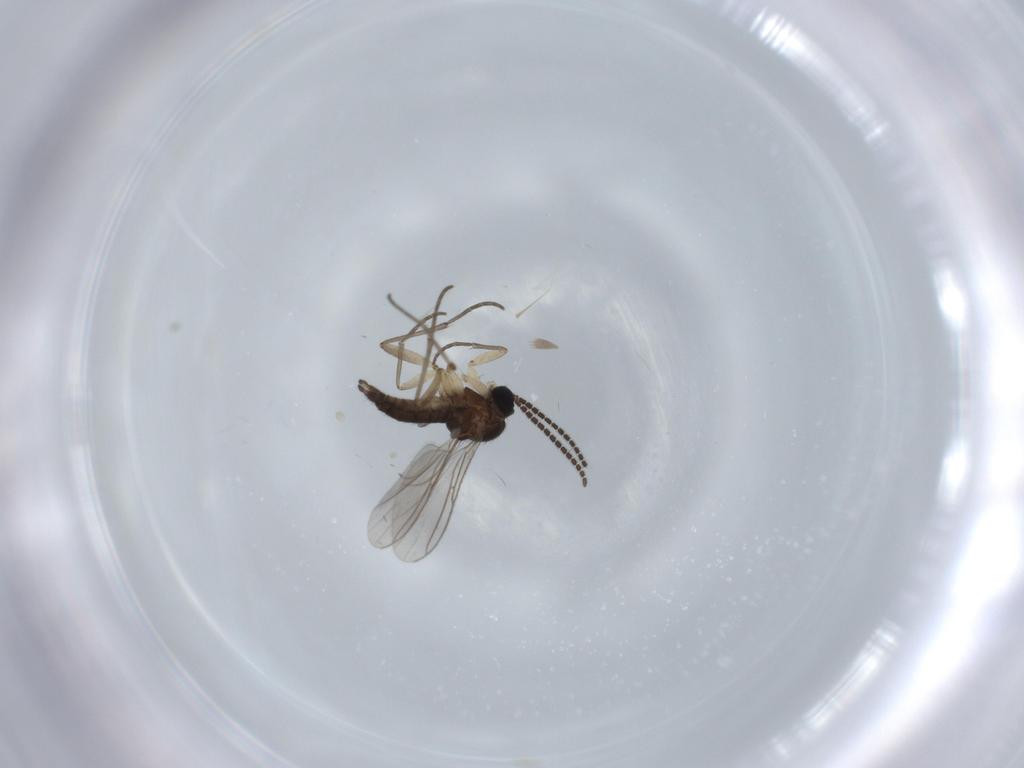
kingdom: Animalia
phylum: Arthropoda
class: Insecta
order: Diptera
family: Sciaridae
